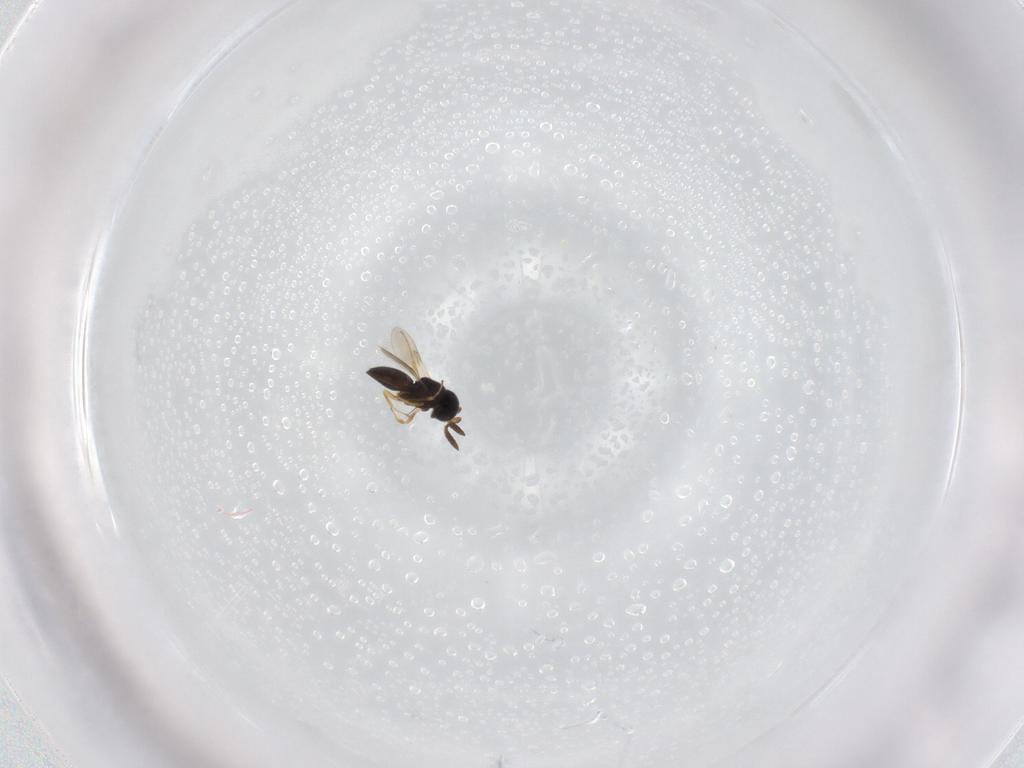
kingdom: Animalia
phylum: Arthropoda
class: Insecta
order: Hymenoptera
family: Scelionidae
